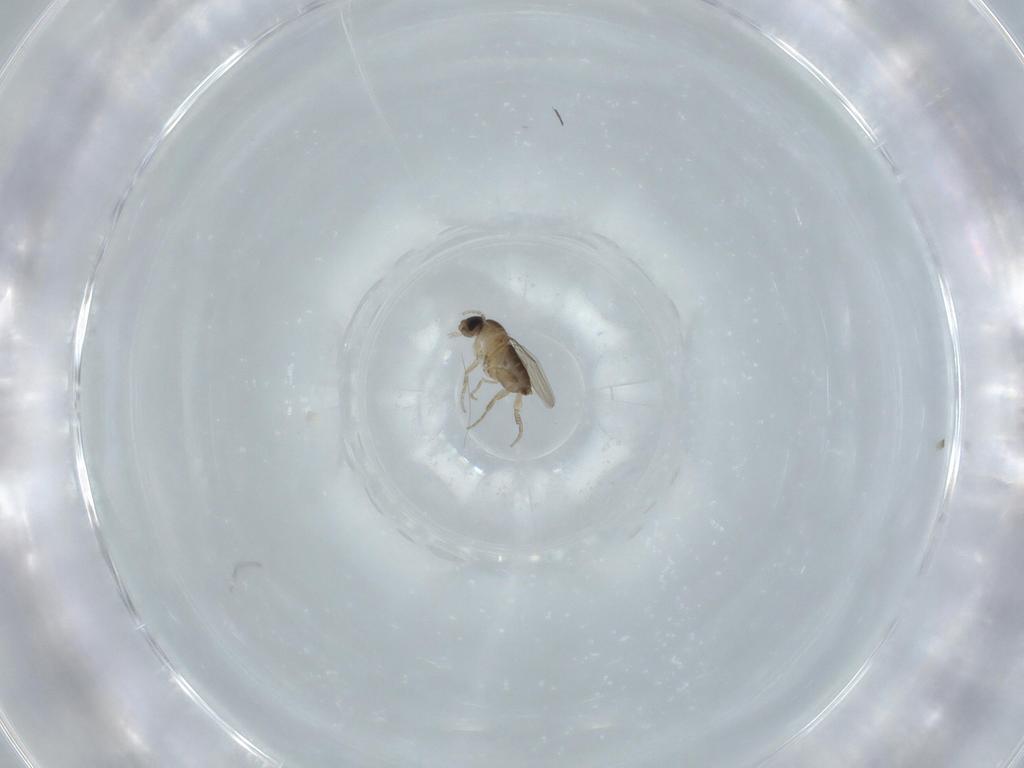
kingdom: Animalia
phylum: Arthropoda
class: Insecta
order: Diptera
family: Phoridae
